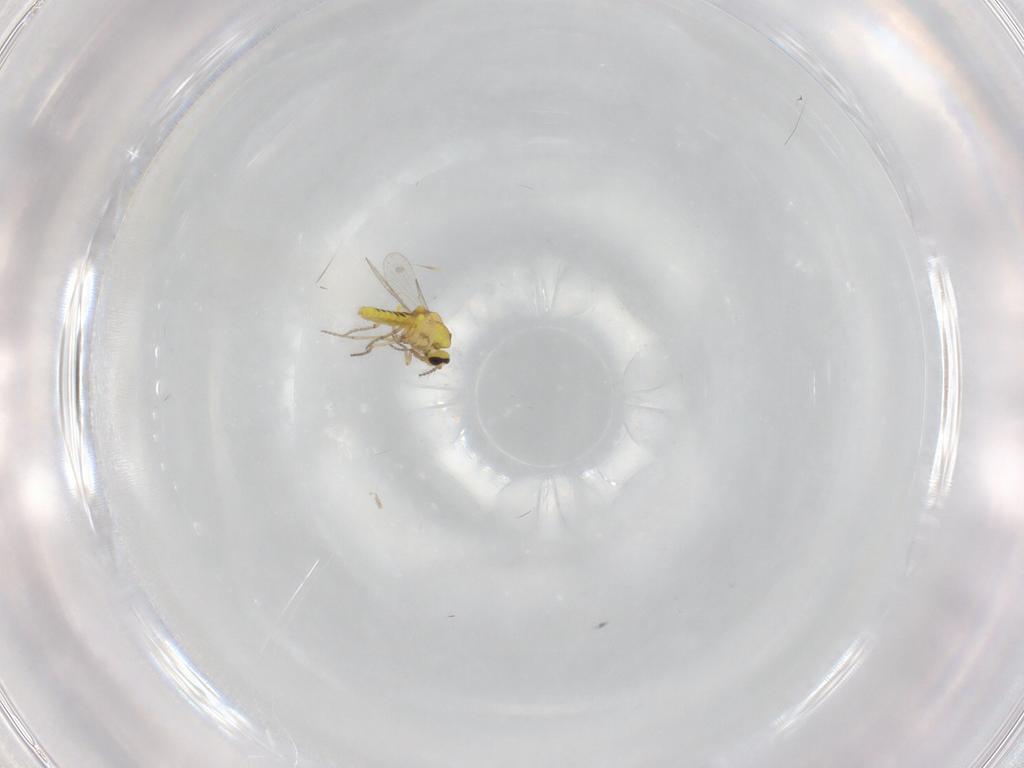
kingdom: Animalia
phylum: Arthropoda
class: Insecta
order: Diptera
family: Ceratopogonidae
